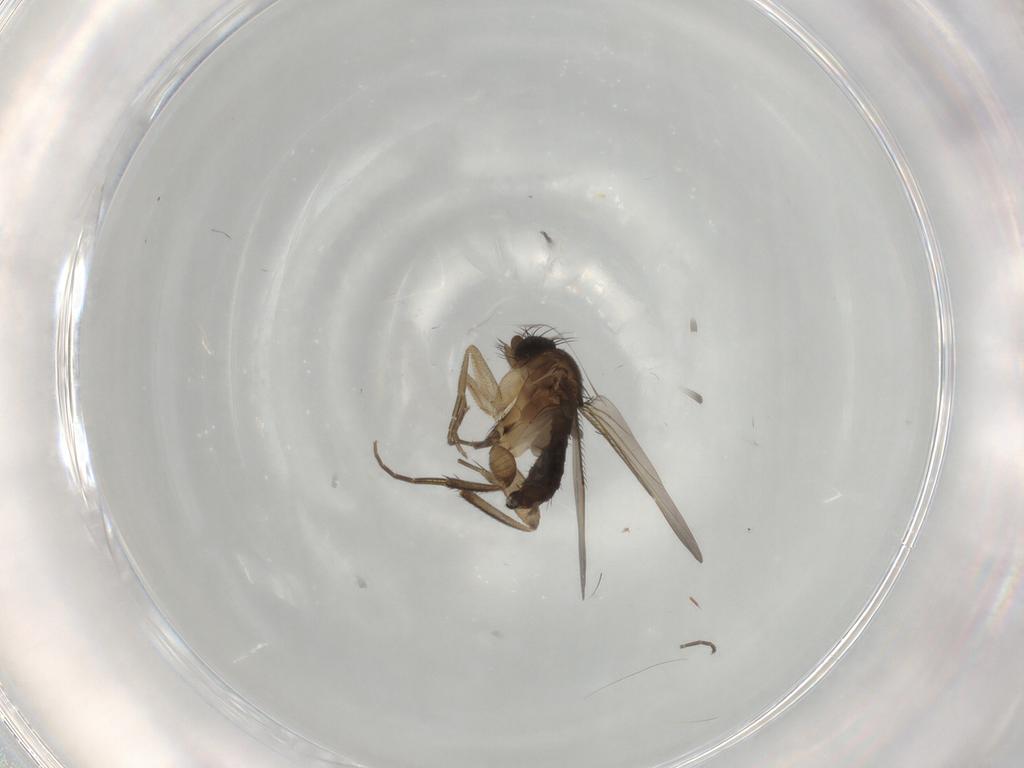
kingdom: Animalia
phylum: Arthropoda
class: Insecta
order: Diptera
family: Phoridae
